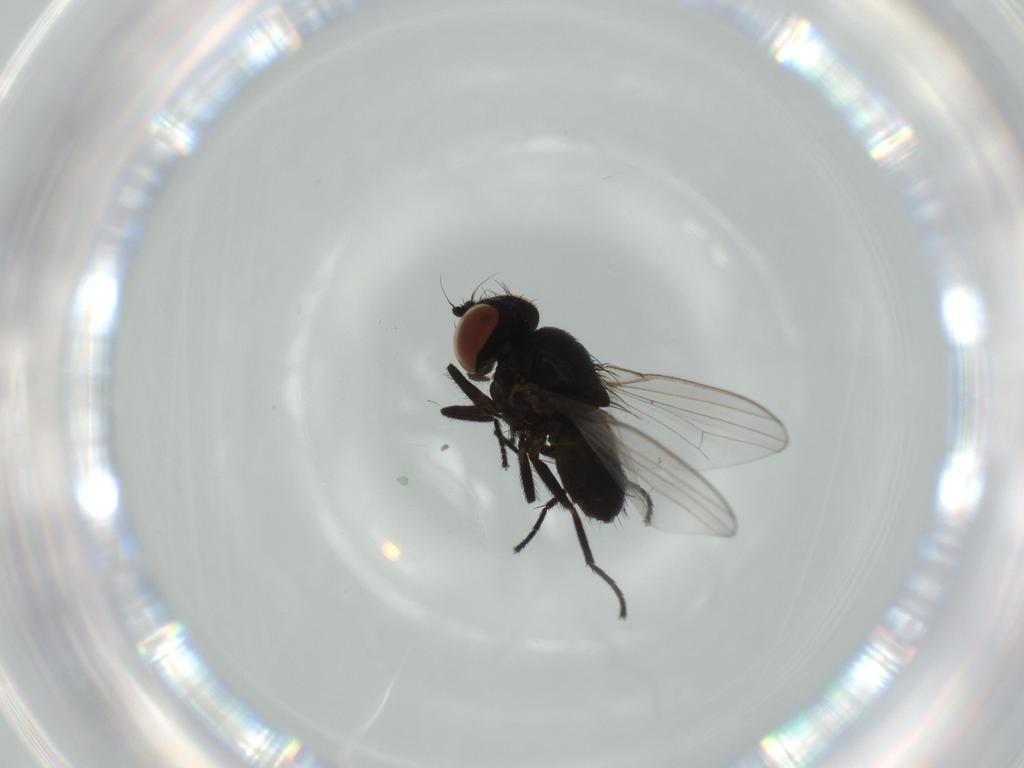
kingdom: Animalia
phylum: Arthropoda
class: Insecta
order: Diptera
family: Milichiidae
